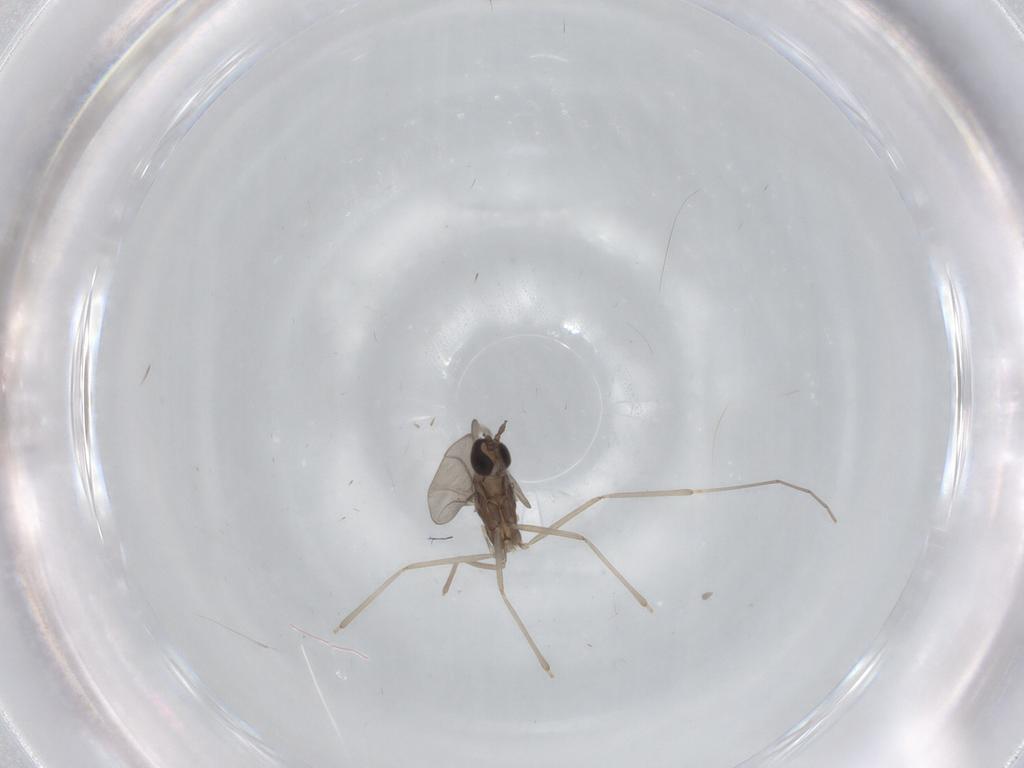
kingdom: Animalia
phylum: Arthropoda
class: Insecta
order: Diptera
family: Cecidomyiidae
